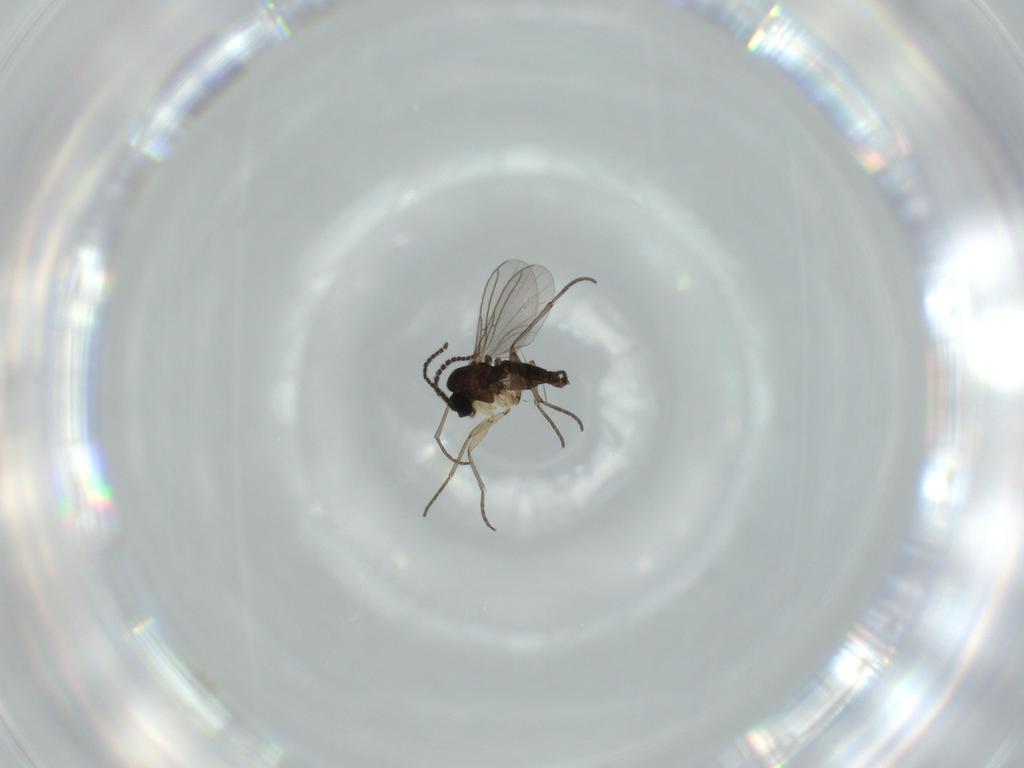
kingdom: Animalia
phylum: Arthropoda
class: Insecta
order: Diptera
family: Sciaridae
